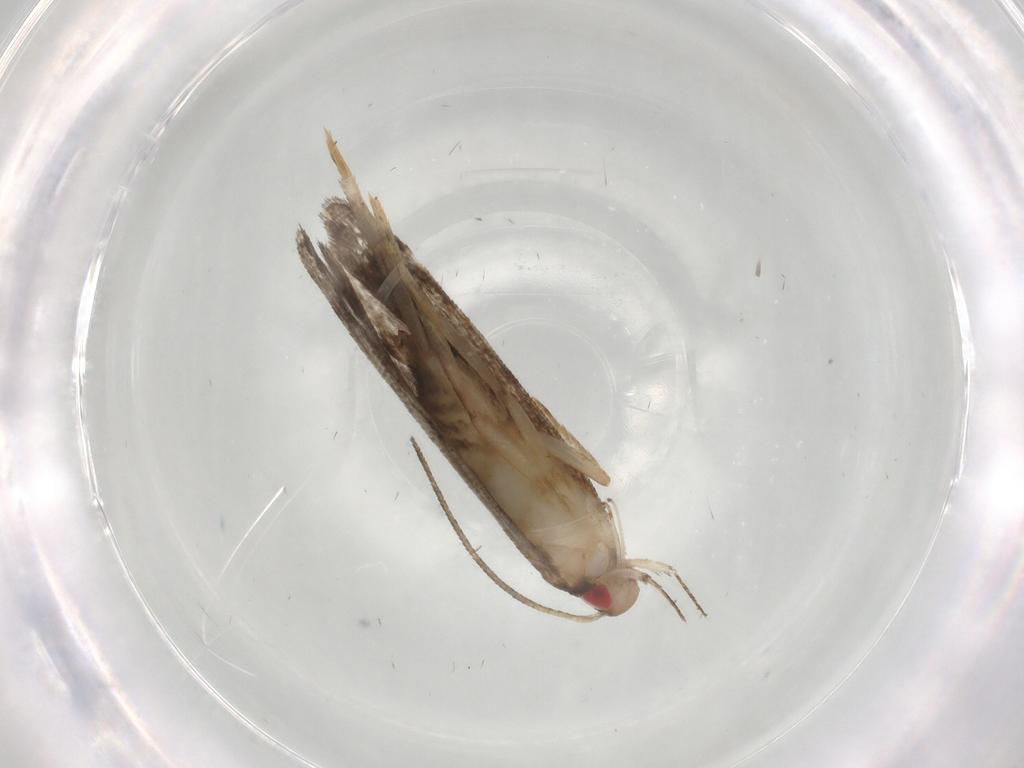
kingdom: Animalia
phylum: Arthropoda
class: Insecta
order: Lepidoptera
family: Gelechiidae
